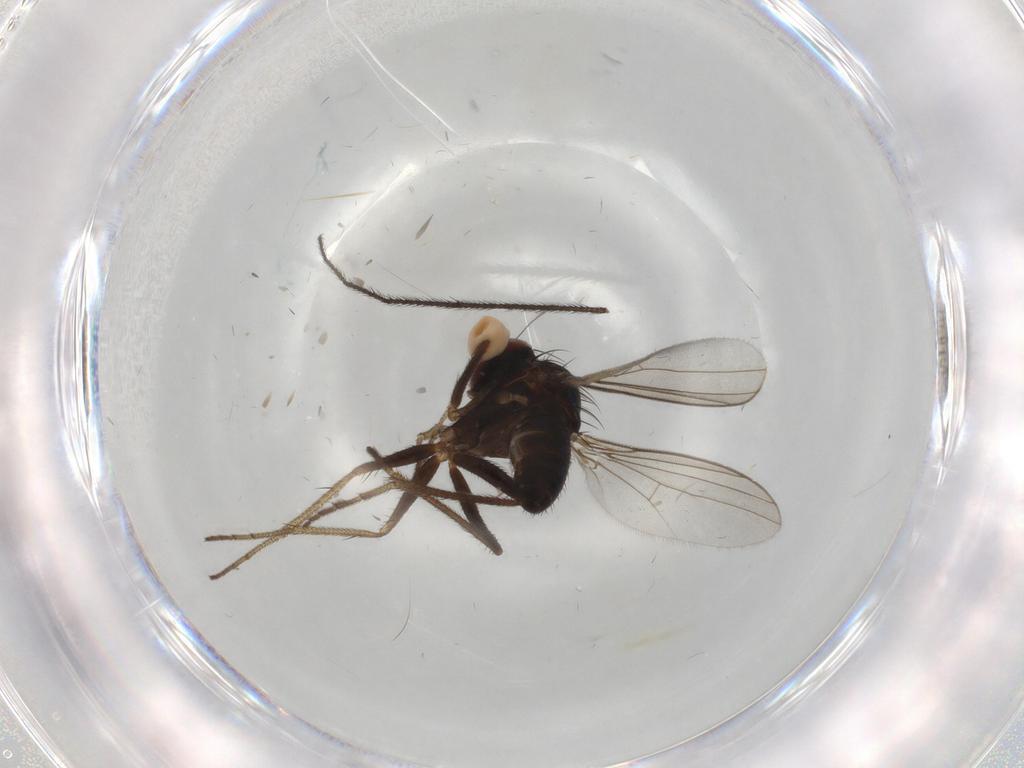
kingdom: Animalia
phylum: Arthropoda
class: Insecta
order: Diptera
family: Dolichopodidae
